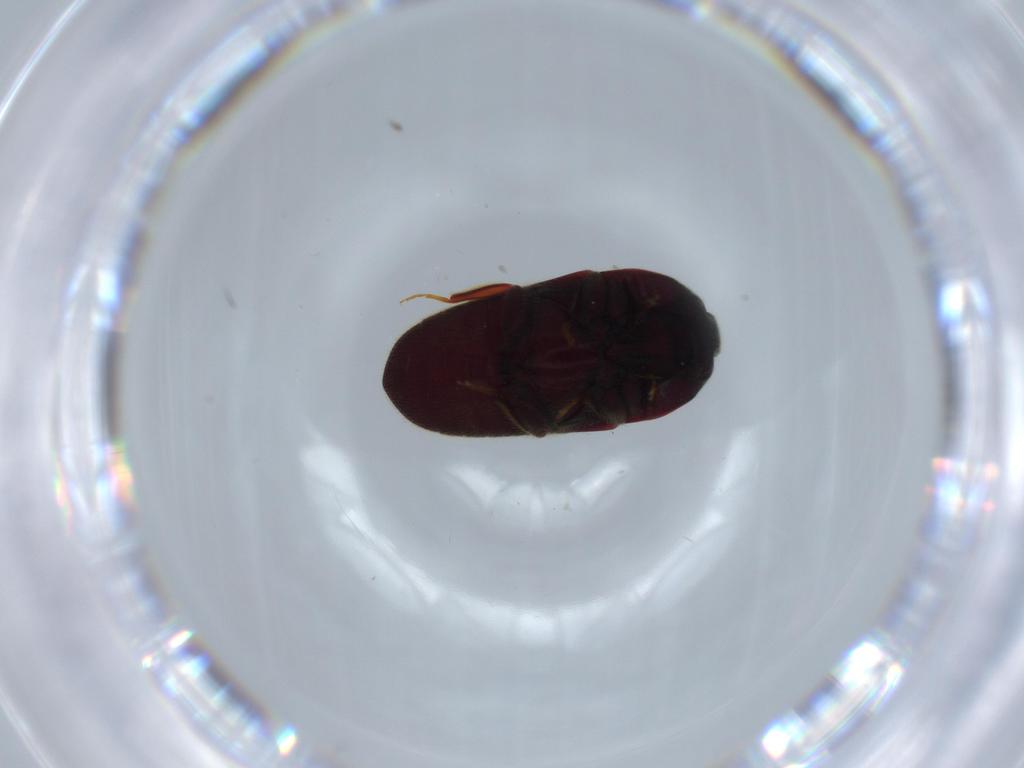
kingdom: Animalia
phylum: Arthropoda
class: Insecta
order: Coleoptera
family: Throscidae
